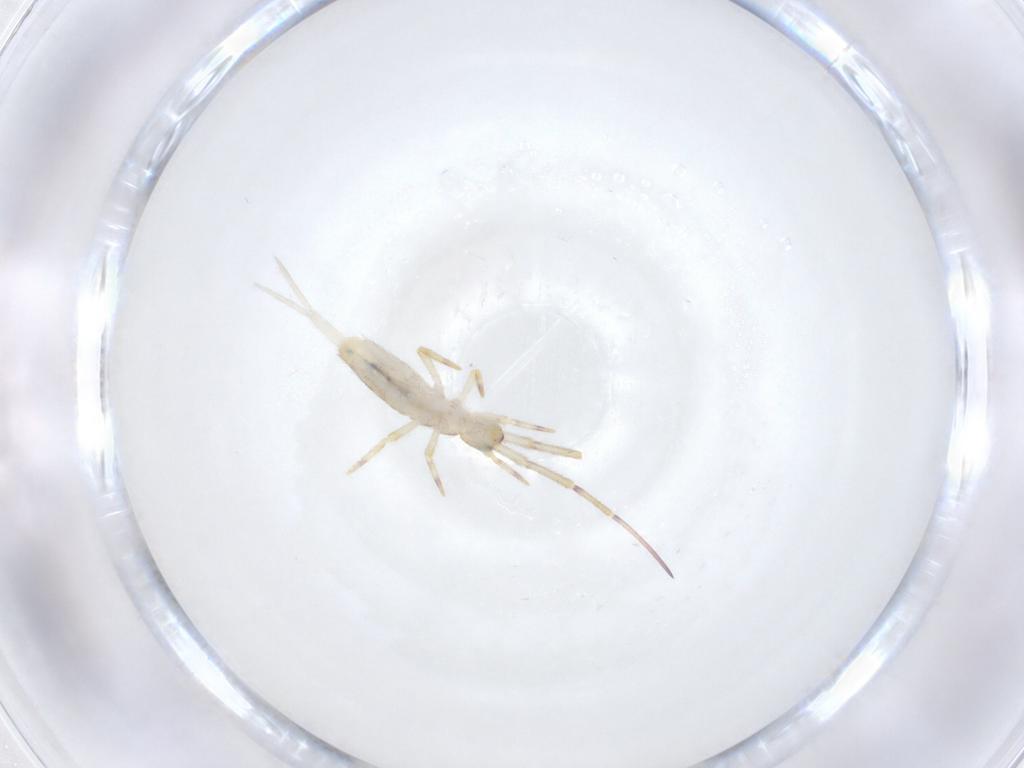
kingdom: Animalia
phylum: Arthropoda
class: Collembola
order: Entomobryomorpha
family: Entomobryidae
